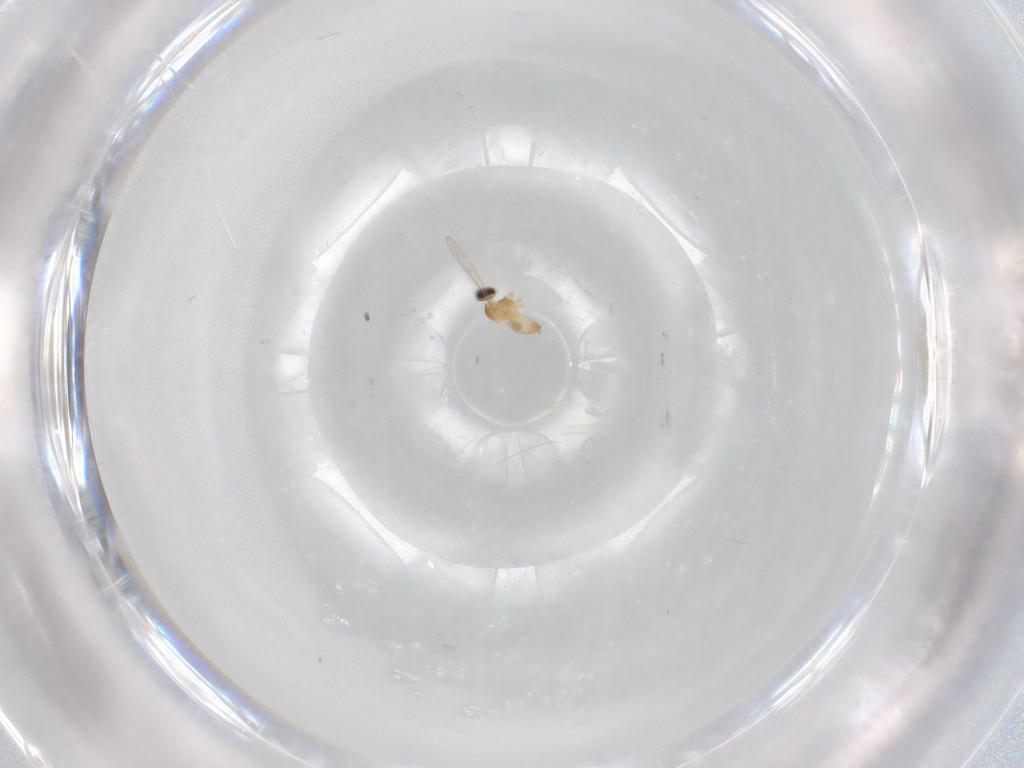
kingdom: Animalia
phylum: Arthropoda
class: Insecta
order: Diptera
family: Cecidomyiidae
